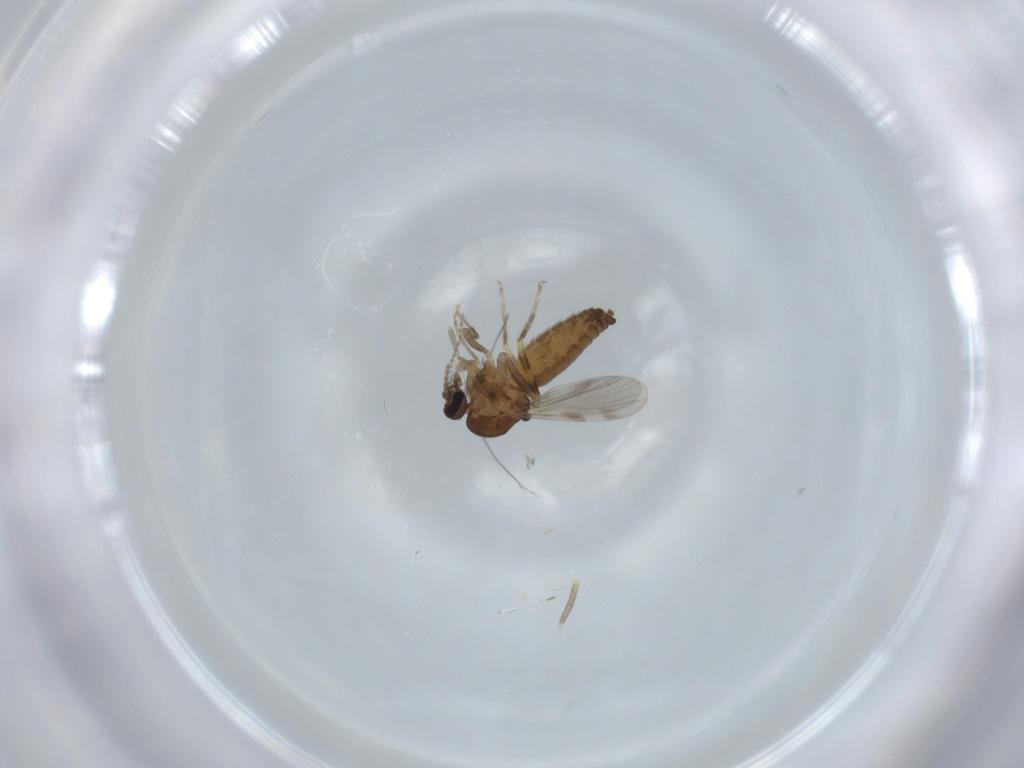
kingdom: Animalia
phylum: Arthropoda
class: Insecta
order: Diptera
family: Ceratopogonidae
